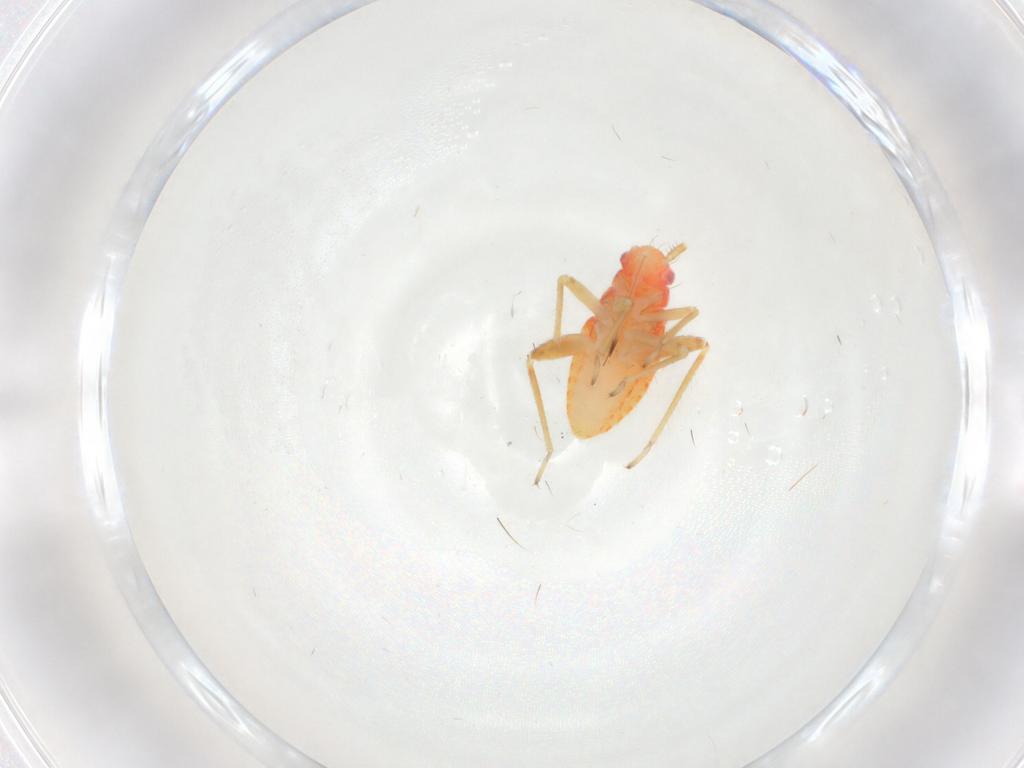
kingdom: Animalia
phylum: Arthropoda
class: Insecta
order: Hemiptera
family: Miridae
